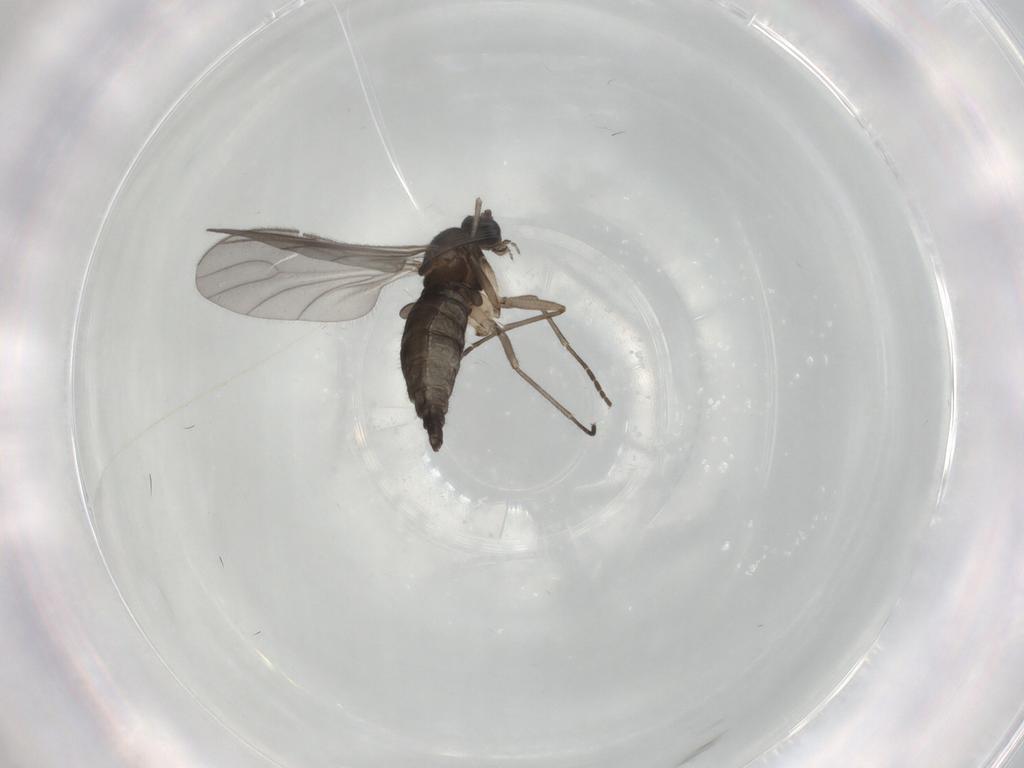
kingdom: Animalia
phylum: Arthropoda
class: Insecta
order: Diptera
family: Sciaridae
